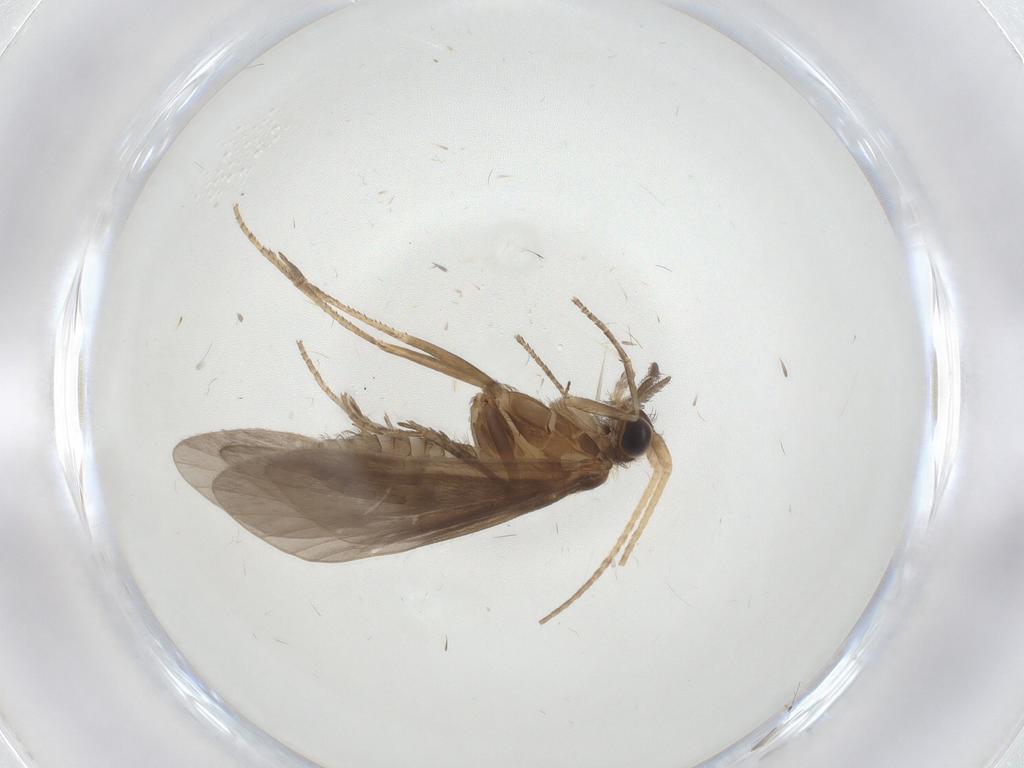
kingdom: Animalia
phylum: Arthropoda
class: Insecta
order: Trichoptera
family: Helicopsychidae
